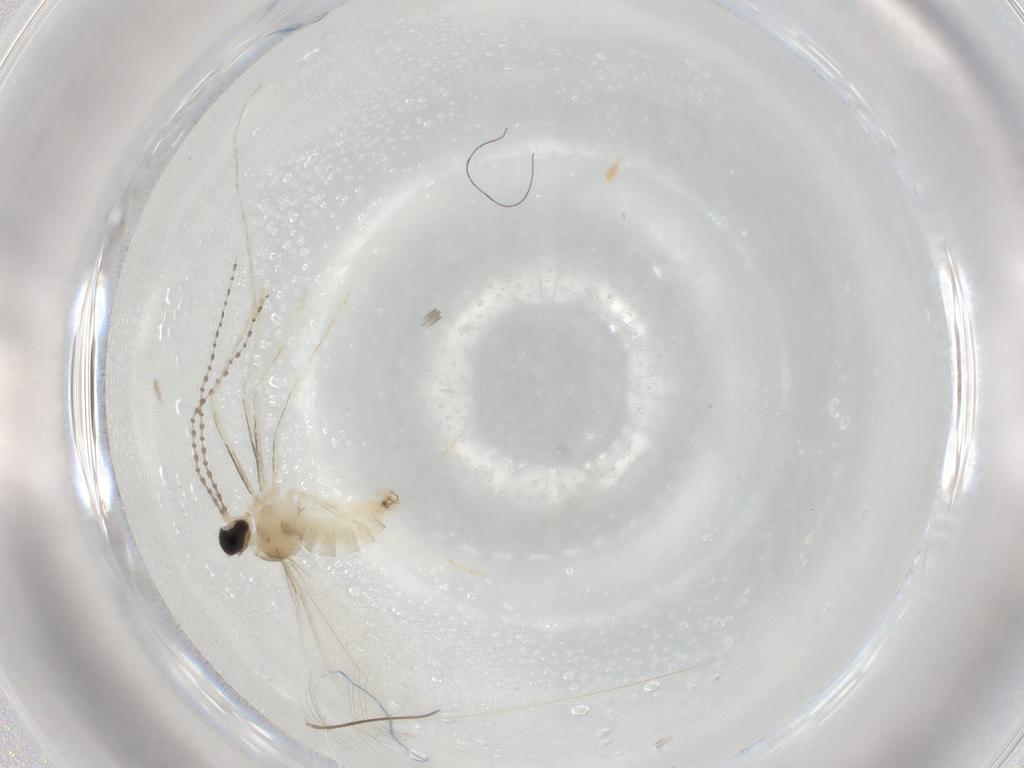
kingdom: Animalia
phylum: Arthropoda
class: Insecta
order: Diptera
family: Cecidomyiidae
